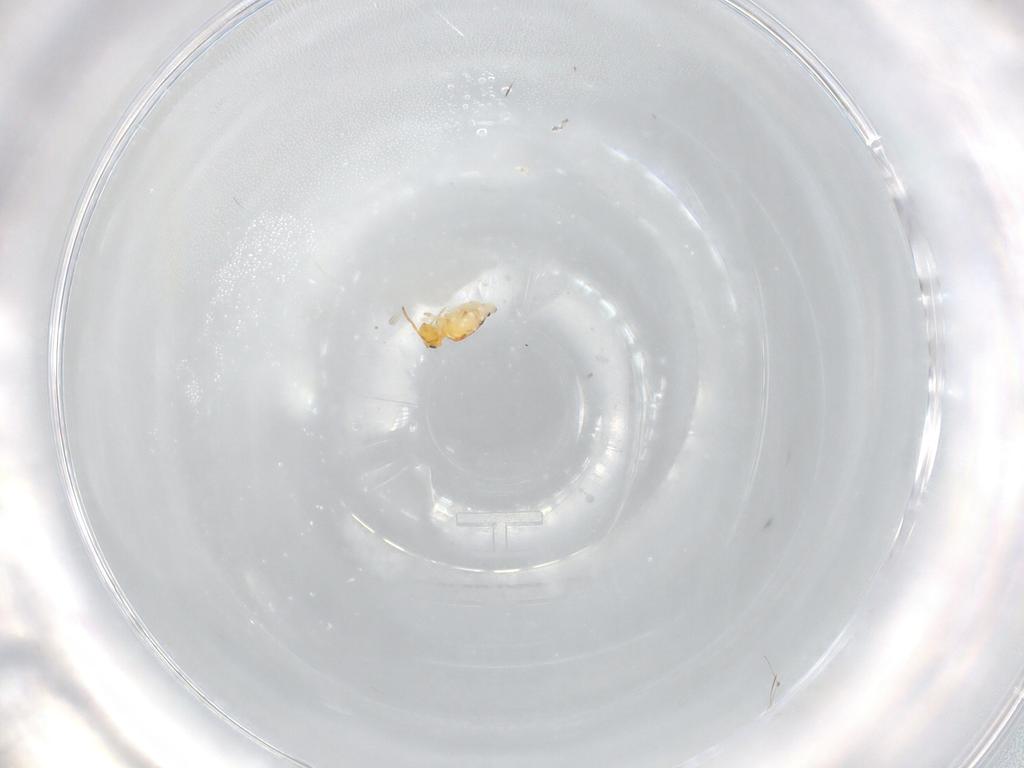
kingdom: Animalia
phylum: Arthropoda
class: Collembola
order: Symphypleona
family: Bourletiellidae
